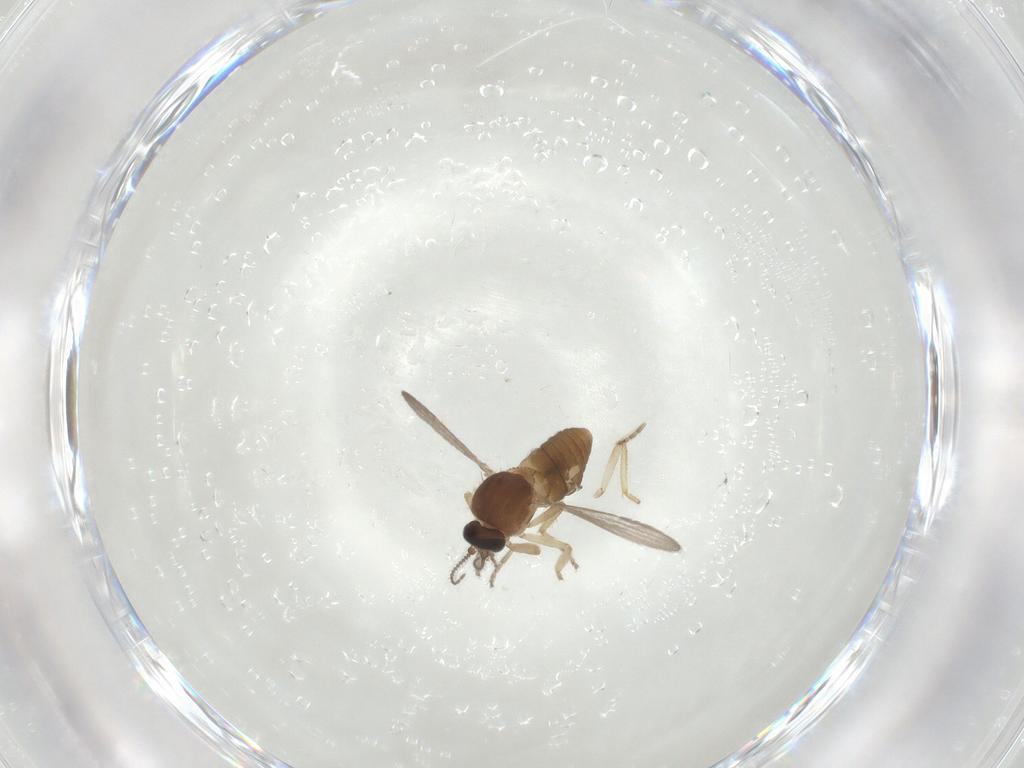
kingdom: Animalia
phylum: Arthropoda
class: Insecta
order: Diptera
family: Ceratopogonidae
